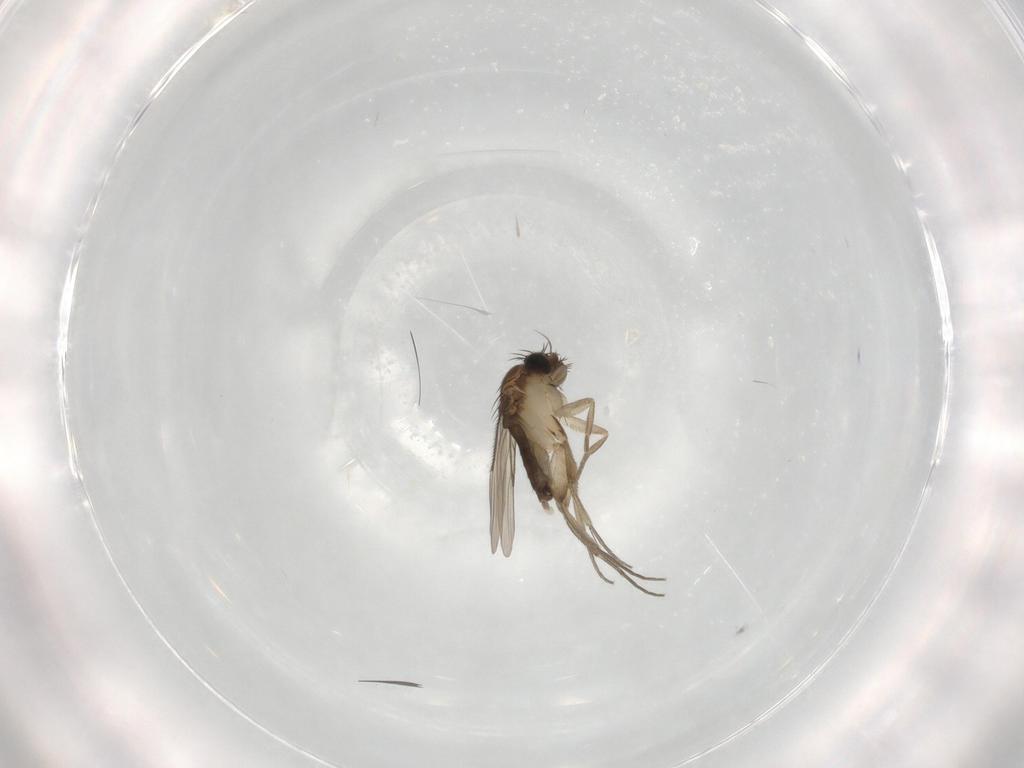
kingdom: Animalia
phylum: Arthropoda
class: Insecta
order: Diptera
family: Phoridae
